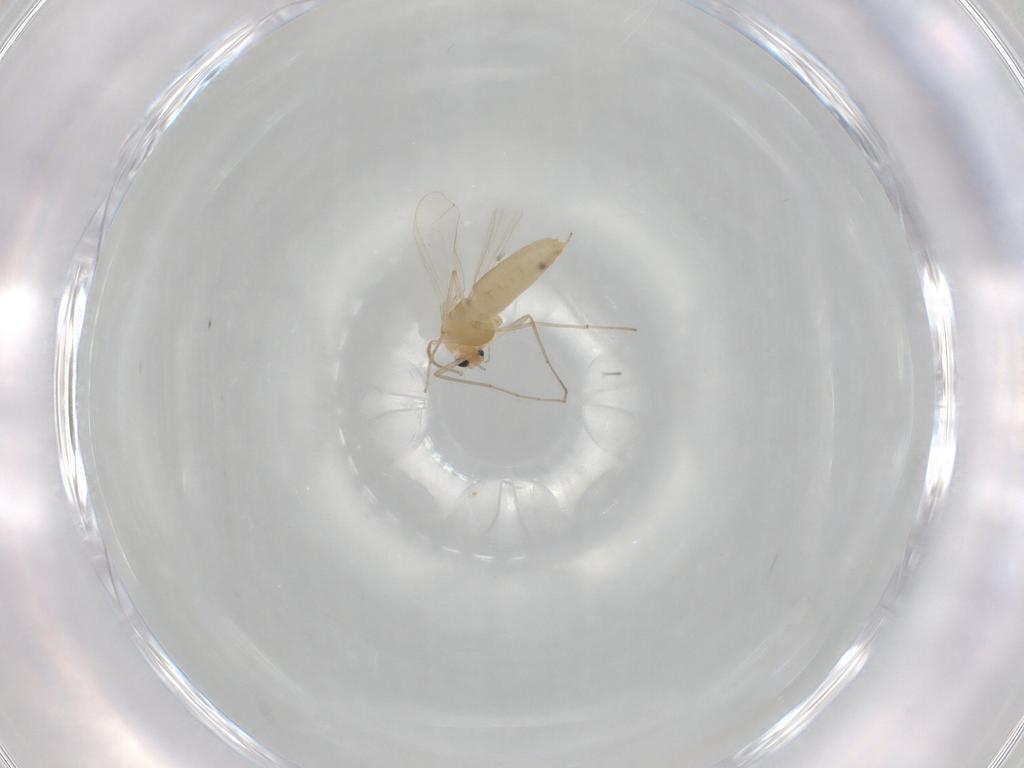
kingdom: Animalia
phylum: Arthropoda
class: Insecta
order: Diptera
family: Chironomidae
